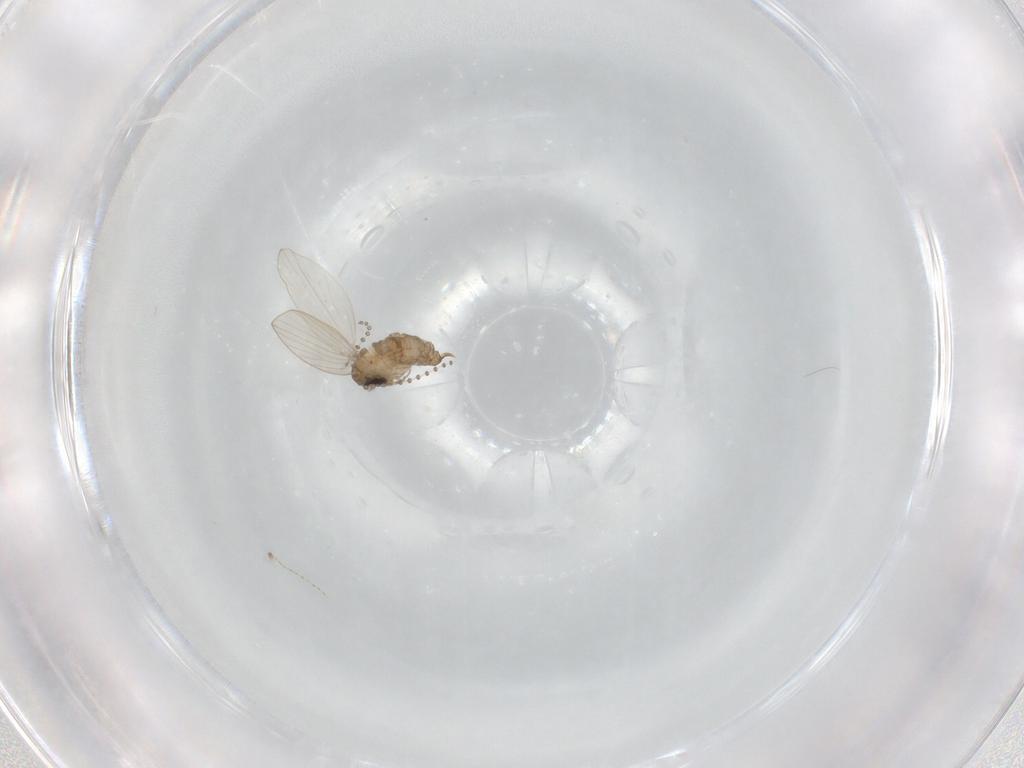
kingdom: Animalia
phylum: Arthropoda
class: Insecta
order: Diptera
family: Psychodidae
